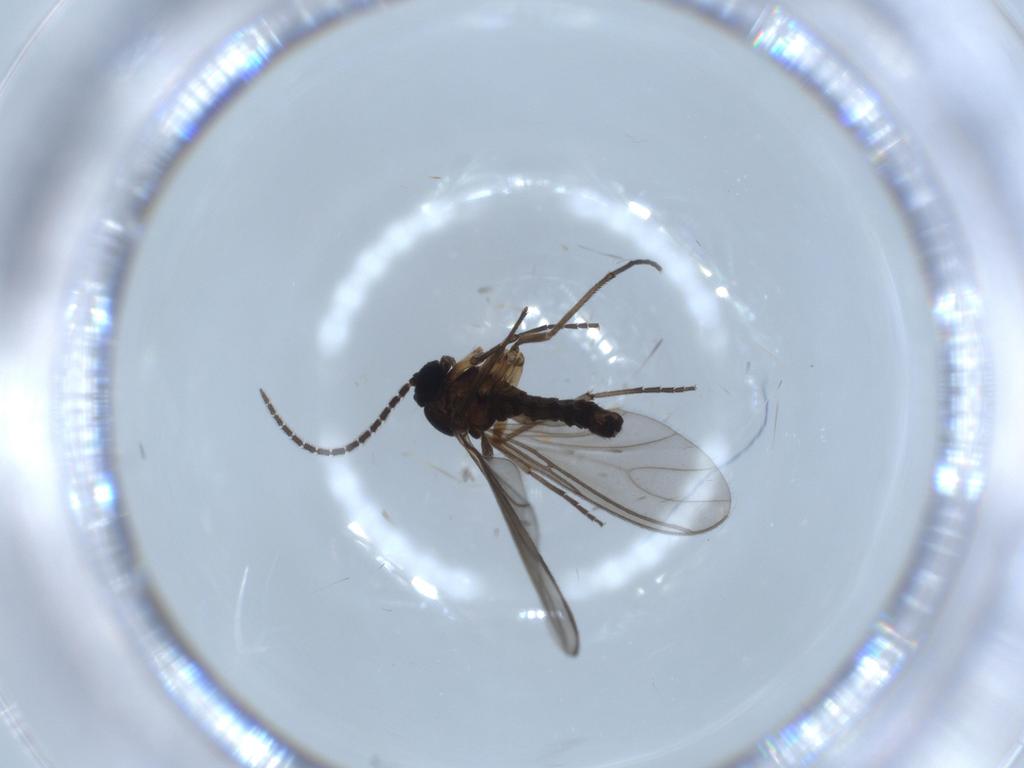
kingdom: Animalia
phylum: Arthropoda
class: Insecta
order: Diptera
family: Sciaridae
